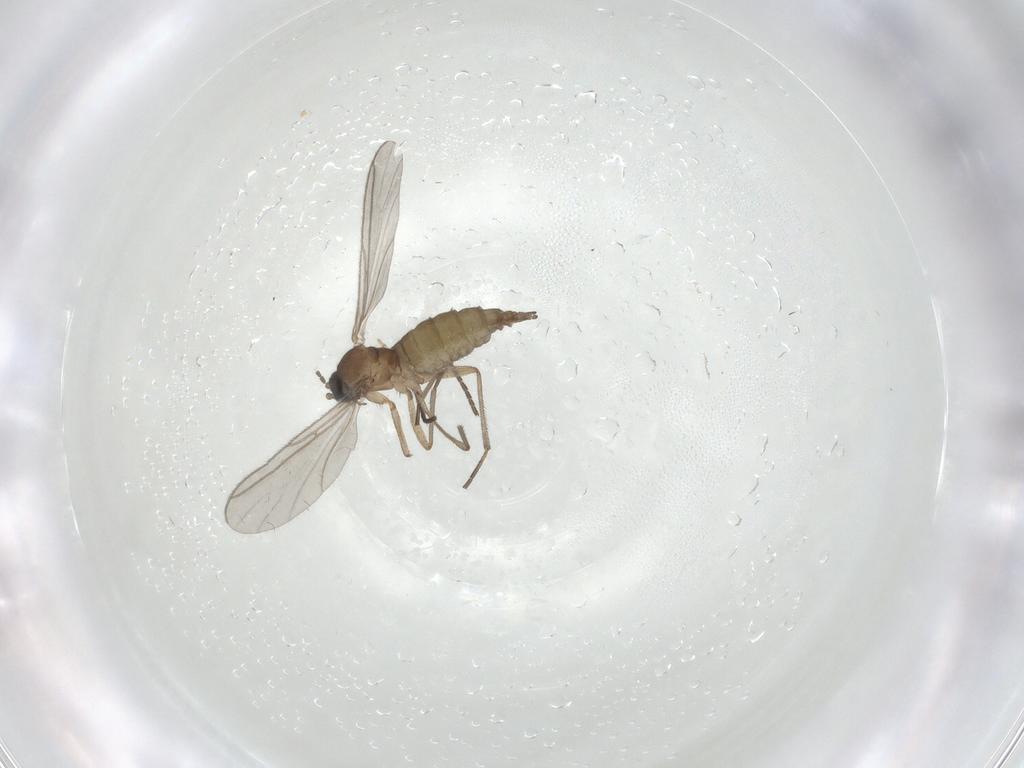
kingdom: Animalia
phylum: Arthropoda
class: Insecta
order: Diptera
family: Sciaridae
